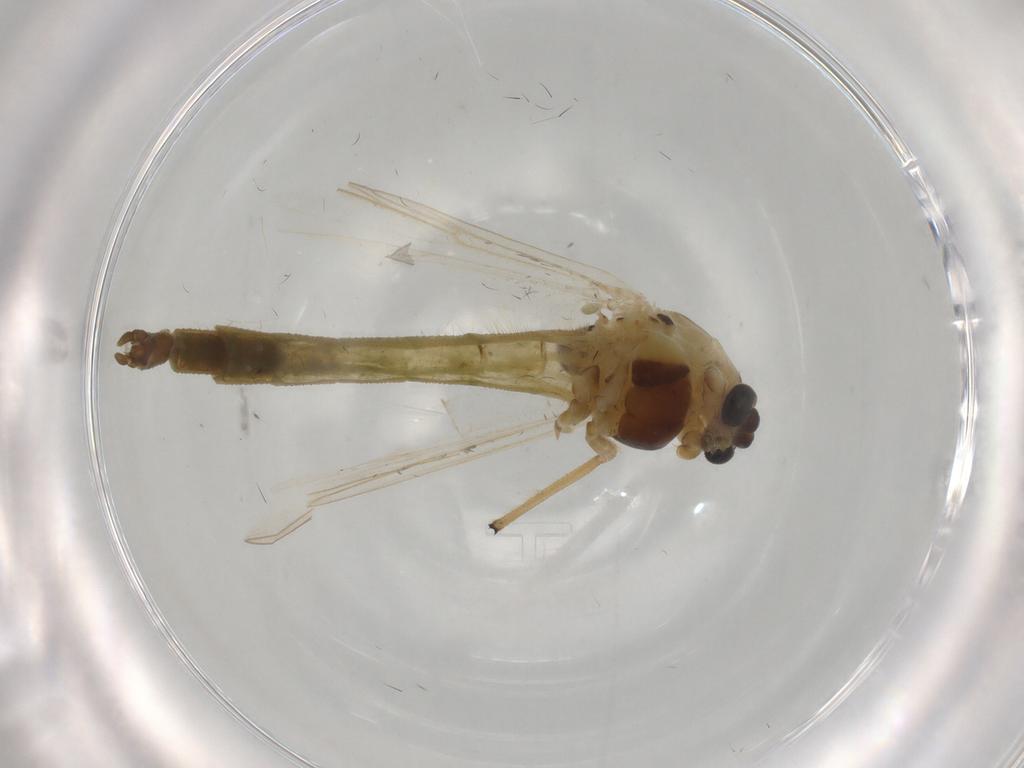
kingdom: Animalia
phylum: Arthropoda
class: Insecta
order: Diptera
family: Chironomidae
